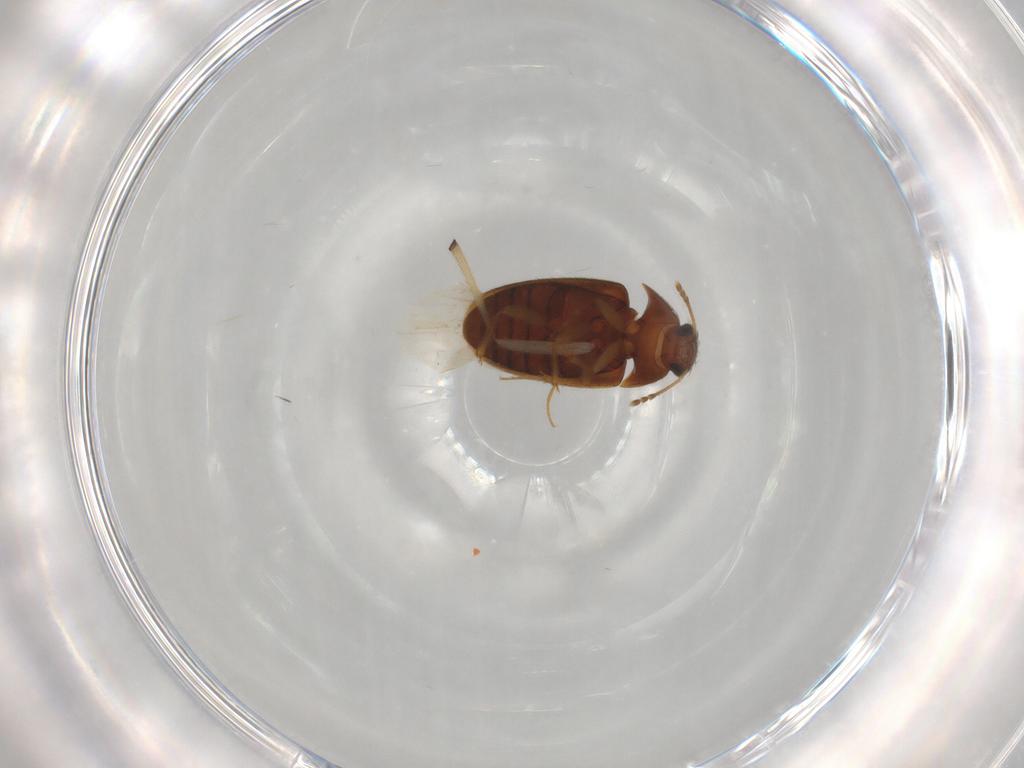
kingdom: Animalia
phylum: Arthropoda
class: Insecta
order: Coleoptera
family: Mycetophagidae
